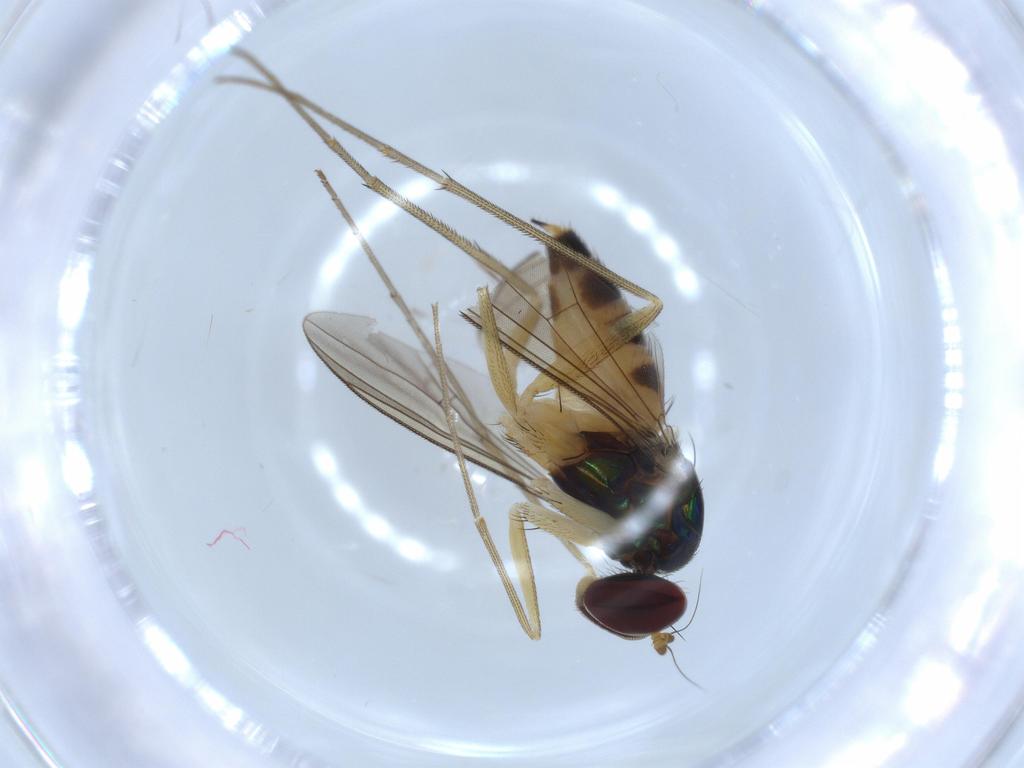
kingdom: Animalia
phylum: Arthropoda
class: Insecta
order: Diptera
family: Dolichopodidae
